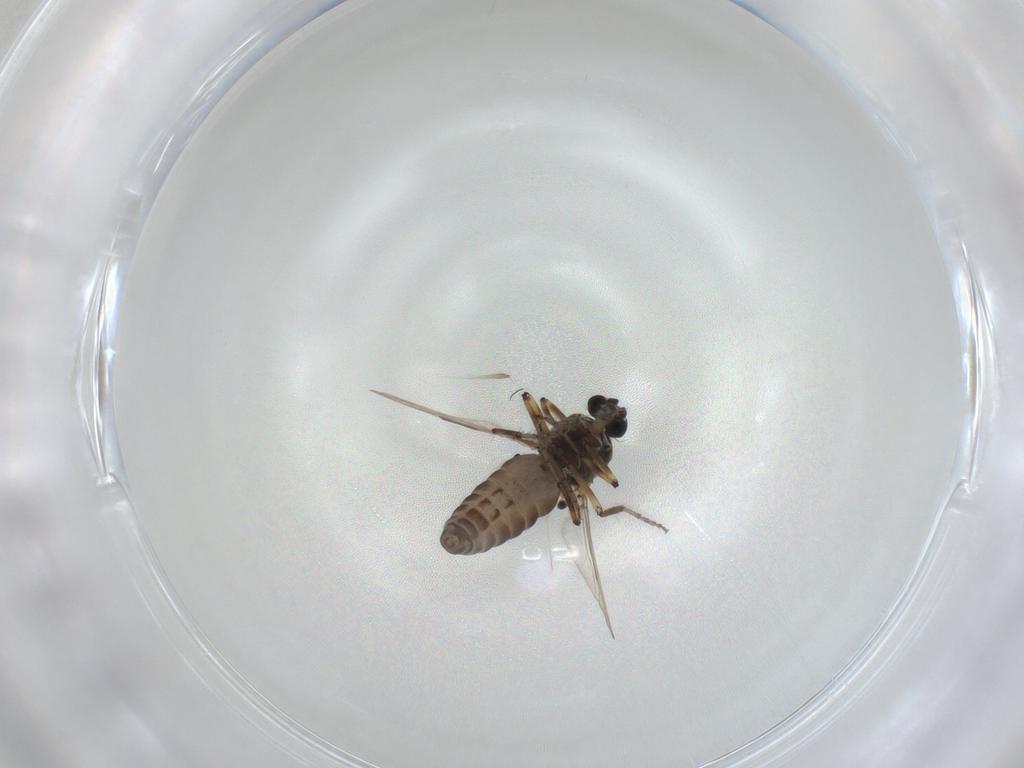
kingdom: Animalia
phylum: Arthropoda
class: Insecta
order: Diptera
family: Ceratopogonidae
